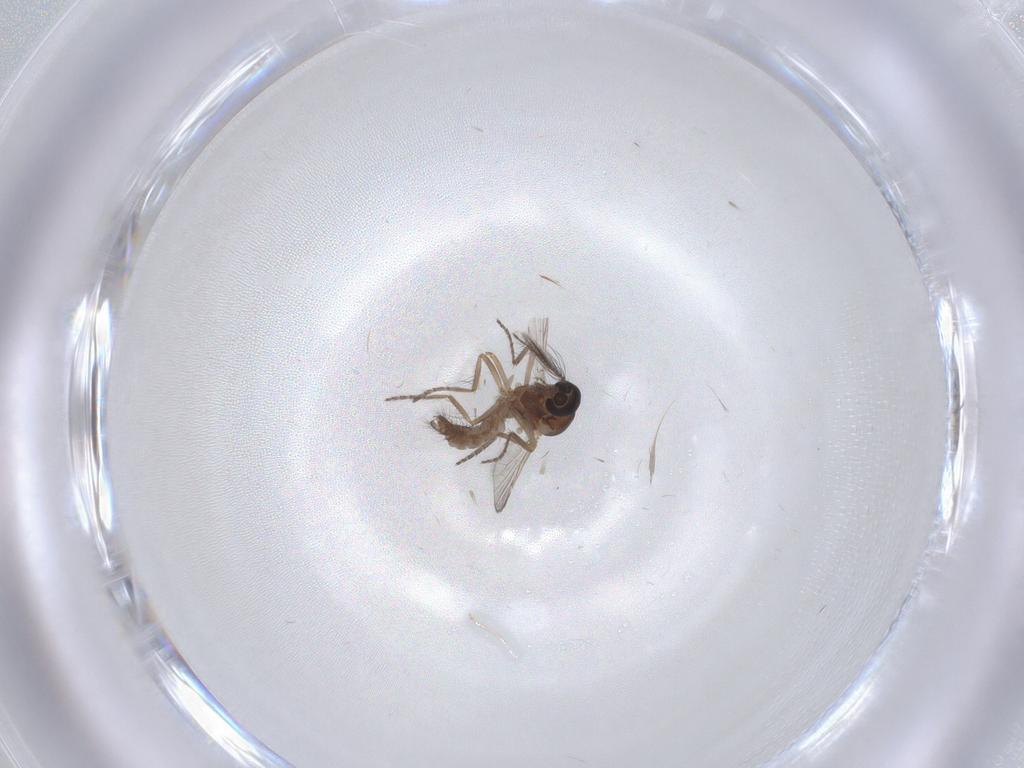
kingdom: Animalia
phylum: Arthropoda
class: Insecta
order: Diptera
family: Ceratopogonidae
